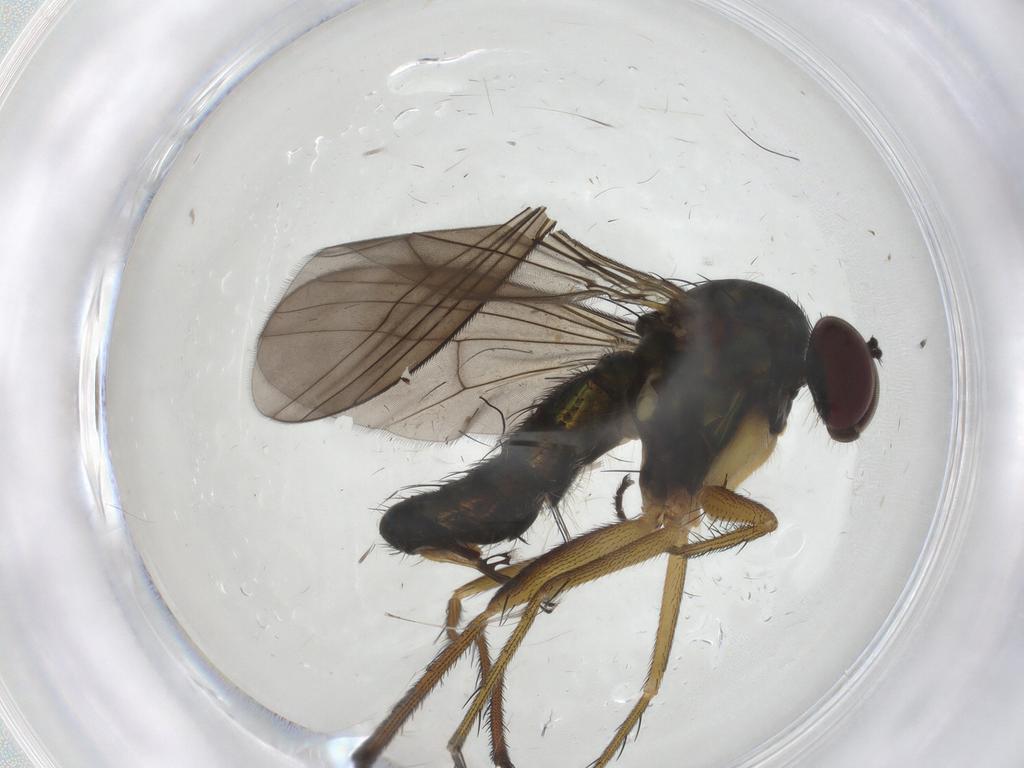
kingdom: Animalia
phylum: Arthropoda
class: Insecta
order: Diptera
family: Dolichopodidae
